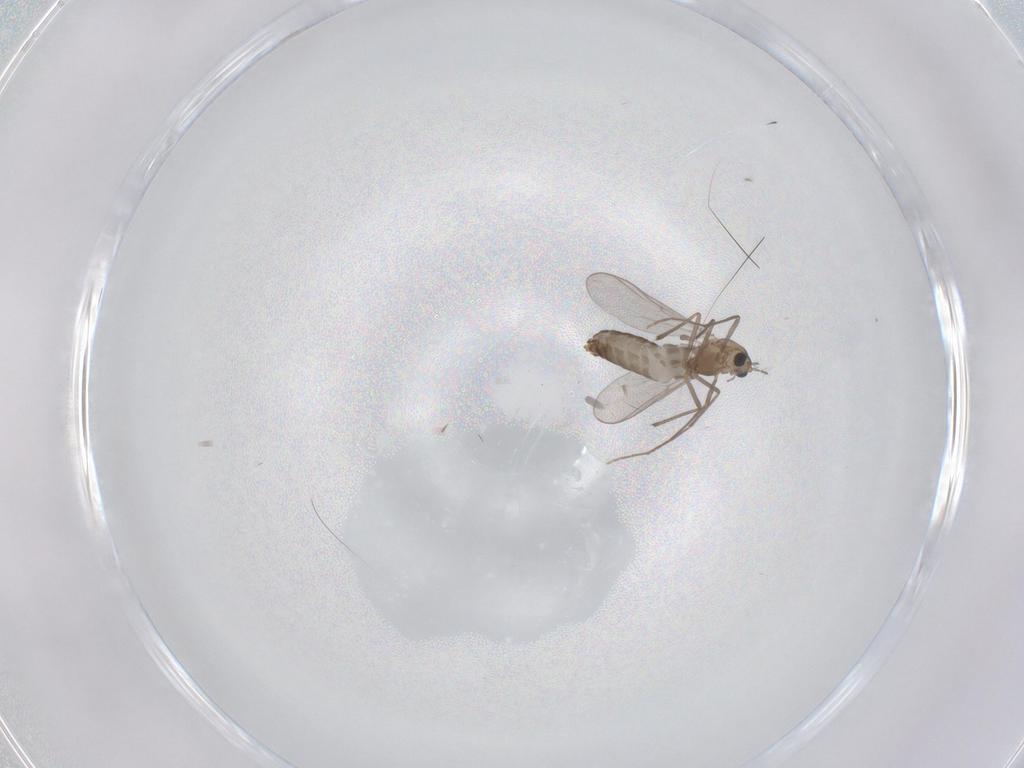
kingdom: Animalia
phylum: Arthropoda
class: Insecta
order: Diptera
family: Chironomidae
